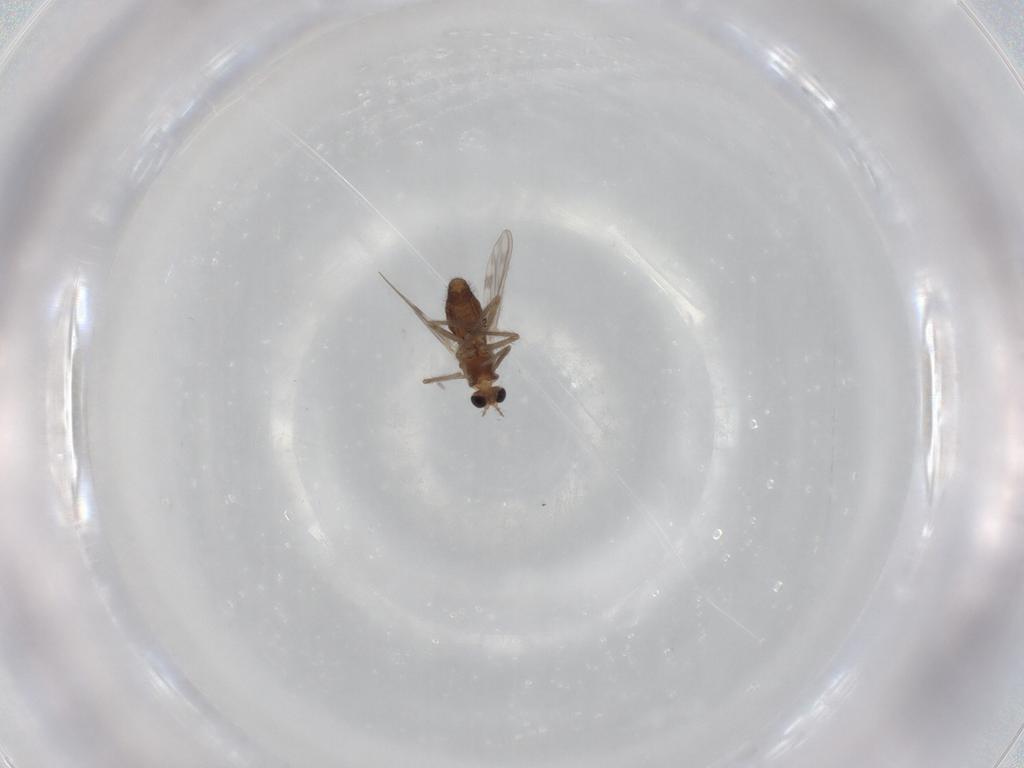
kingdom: Animalia
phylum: Arthropoda
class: Insecta
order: Diptera
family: Chironomidae
